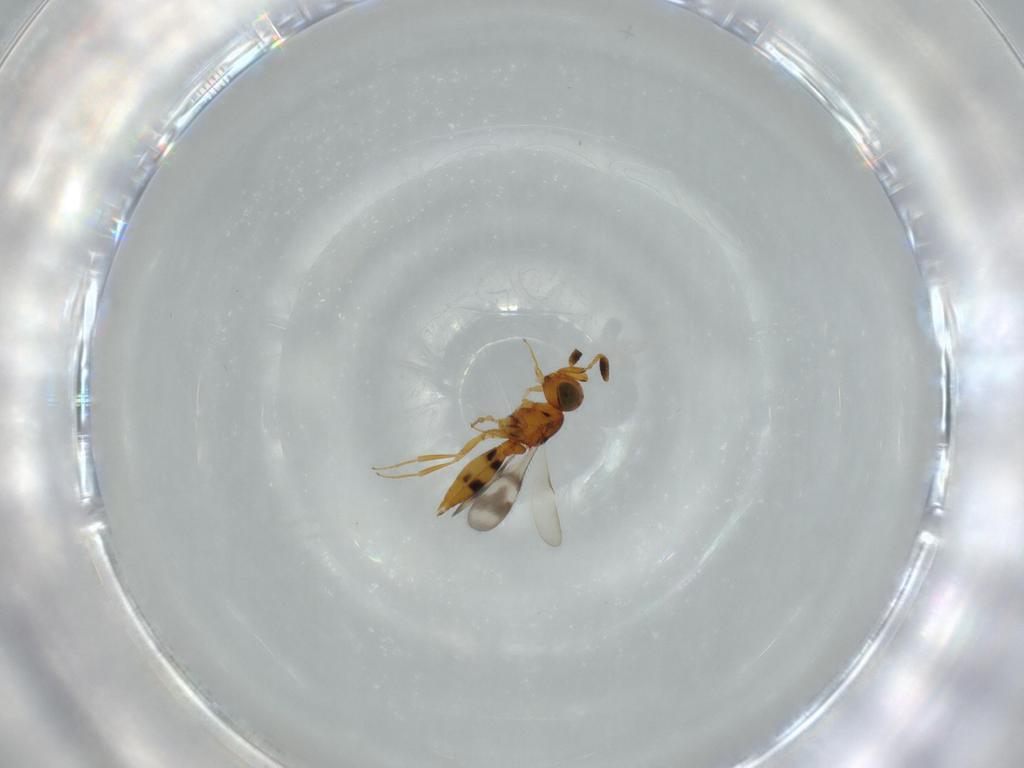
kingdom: Animalia
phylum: Arthropoda
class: Insecta
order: Hymenoptera
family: Scelionidae
